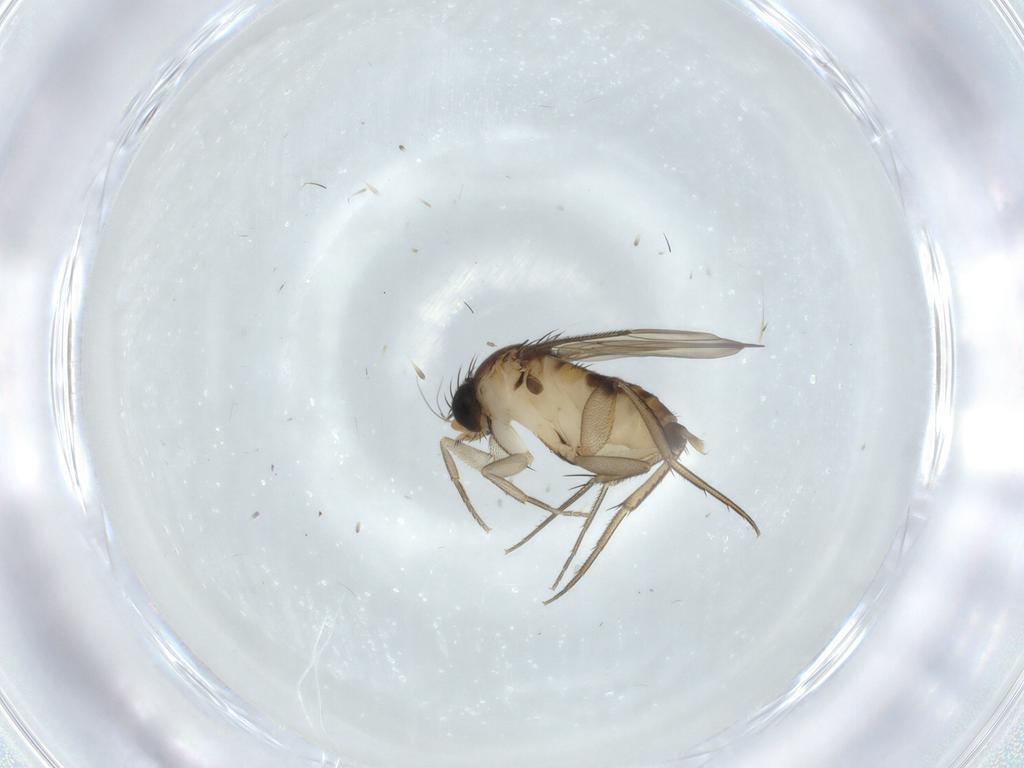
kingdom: Animalia
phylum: Arthropoda
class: Insecta
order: Diptera
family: Phoridae
